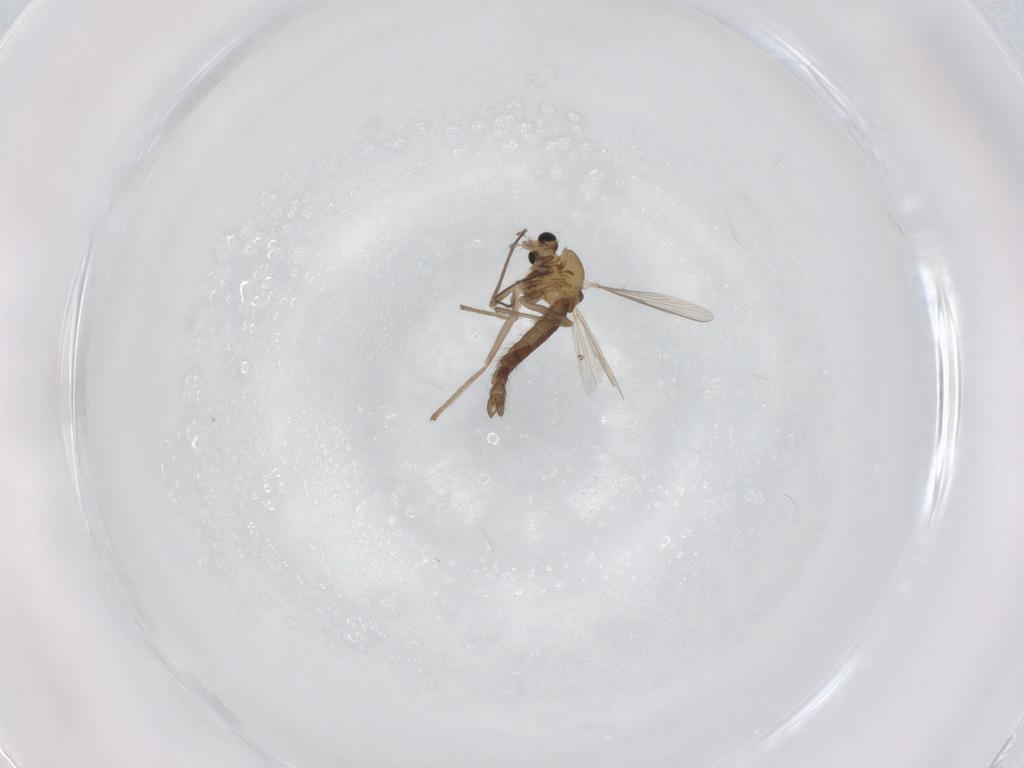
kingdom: Animalia
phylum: Arthropoda
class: Insecta
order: Diptera
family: Chironomidae
